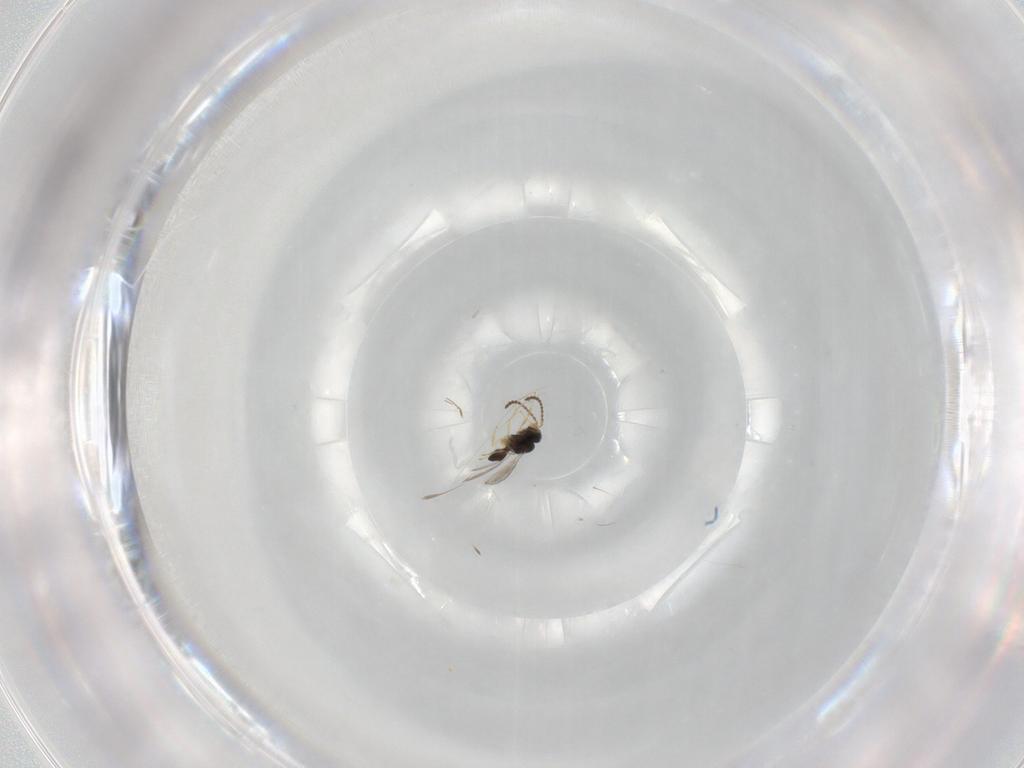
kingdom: Animalia
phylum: Arthropoda
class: Insecta
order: Hymenoptera
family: Scelionidae
